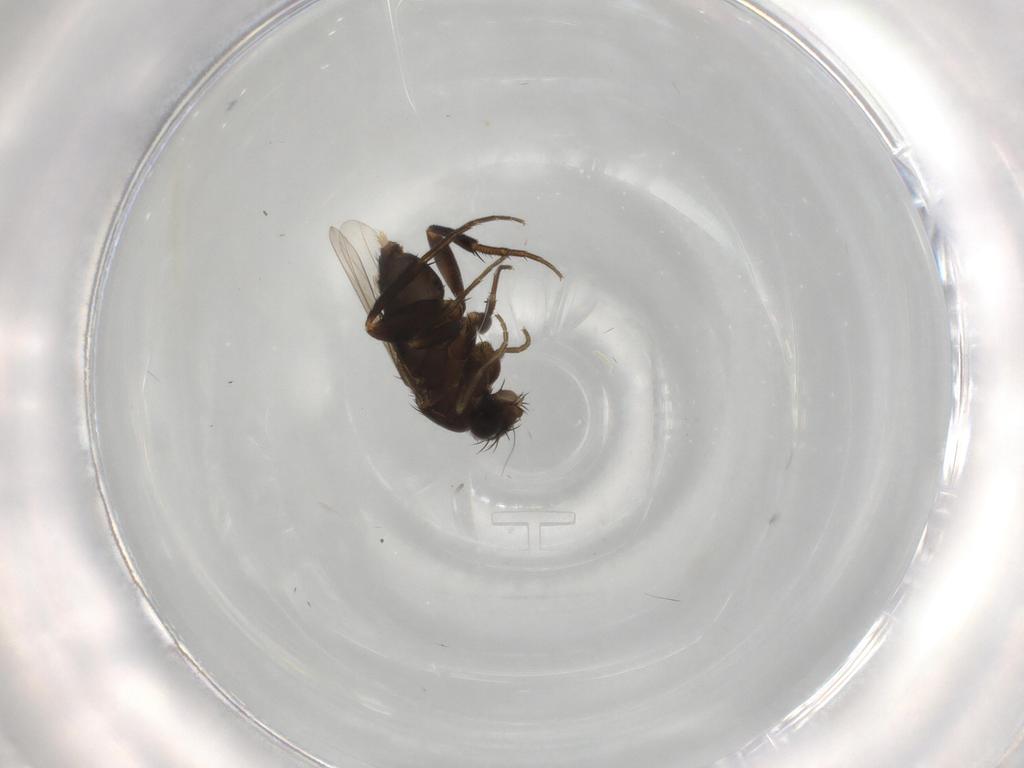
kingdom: Animalia
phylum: Arthropoda
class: Insecta
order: Diptera
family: Phoridae
